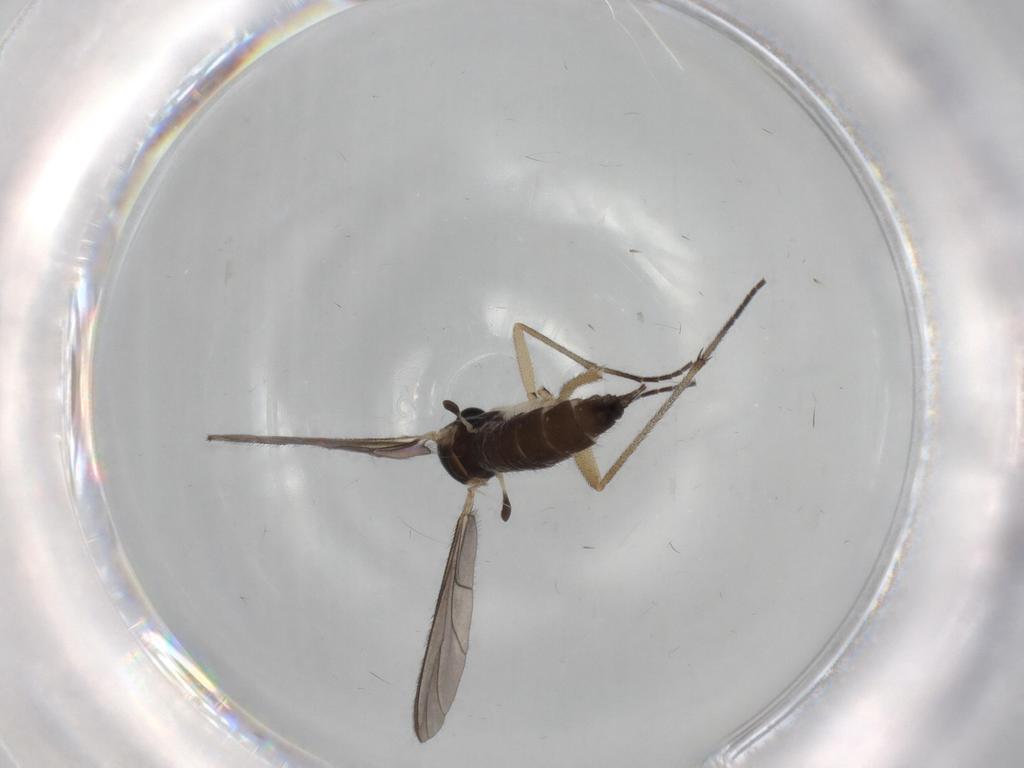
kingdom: Animalia
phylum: Arthropoda
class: Insecta
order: Diptera
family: Sciaridae
